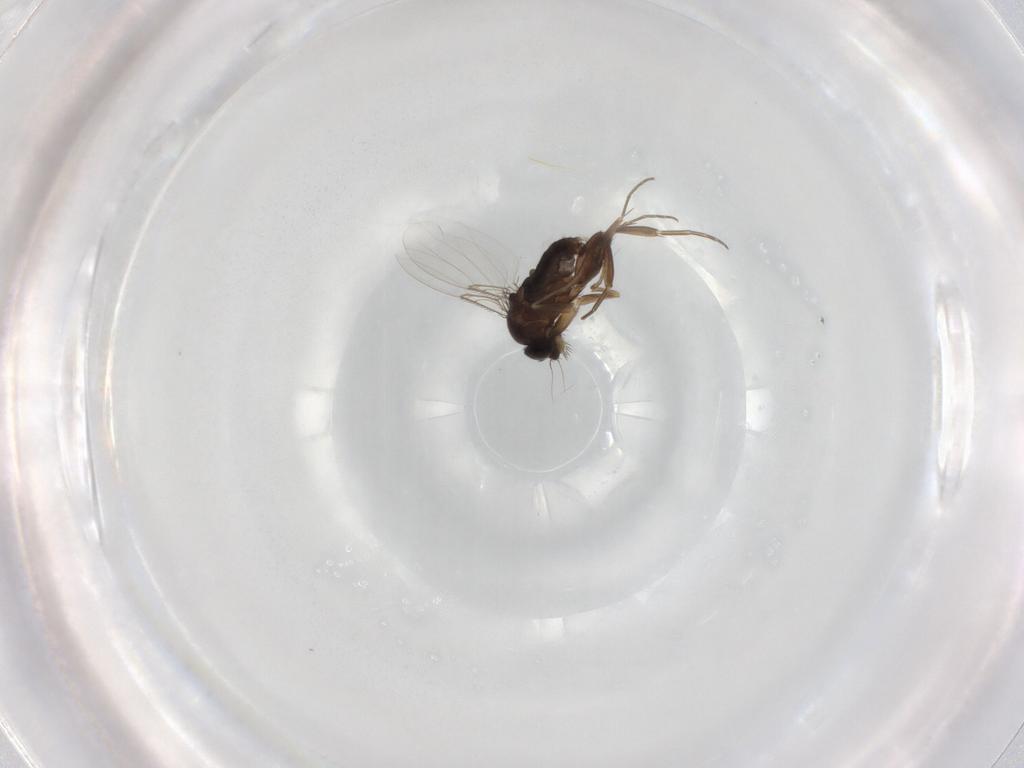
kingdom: Animalia
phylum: Arthropoda
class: Insecta
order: Diptera
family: Phoridae
